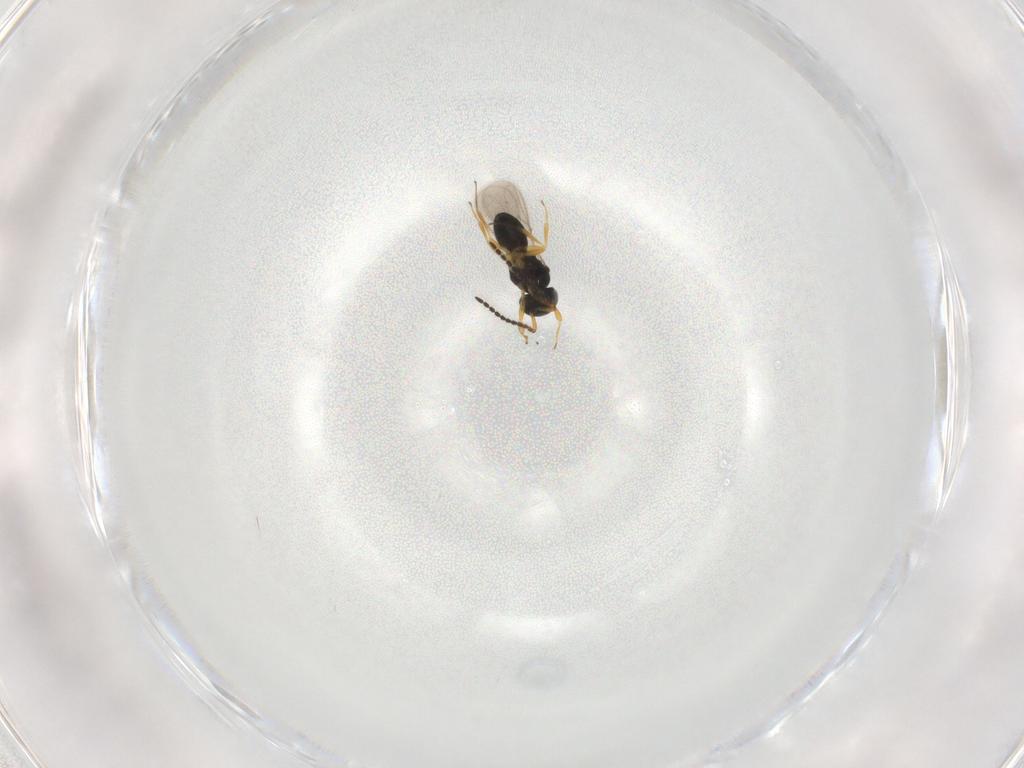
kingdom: Animalia
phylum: Arthropoda
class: Insecta
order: Hymenoptera
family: Scelionidae
